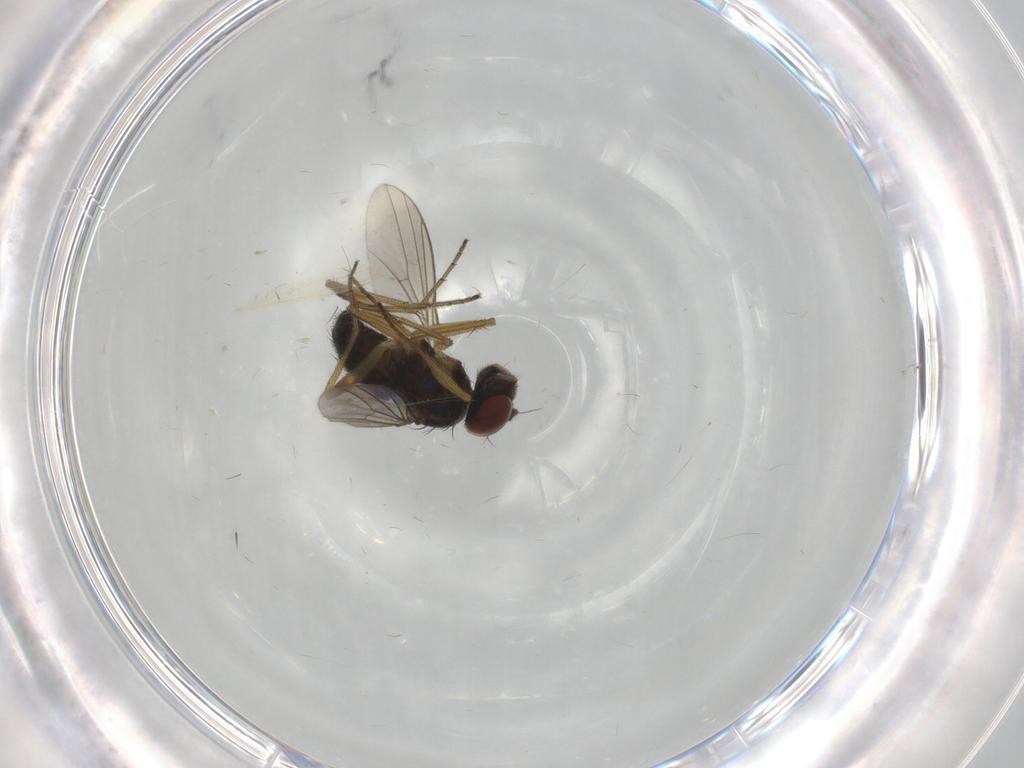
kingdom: Animalia
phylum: Arthropoda
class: Insecta
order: Diptera
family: Dolichopodidae
